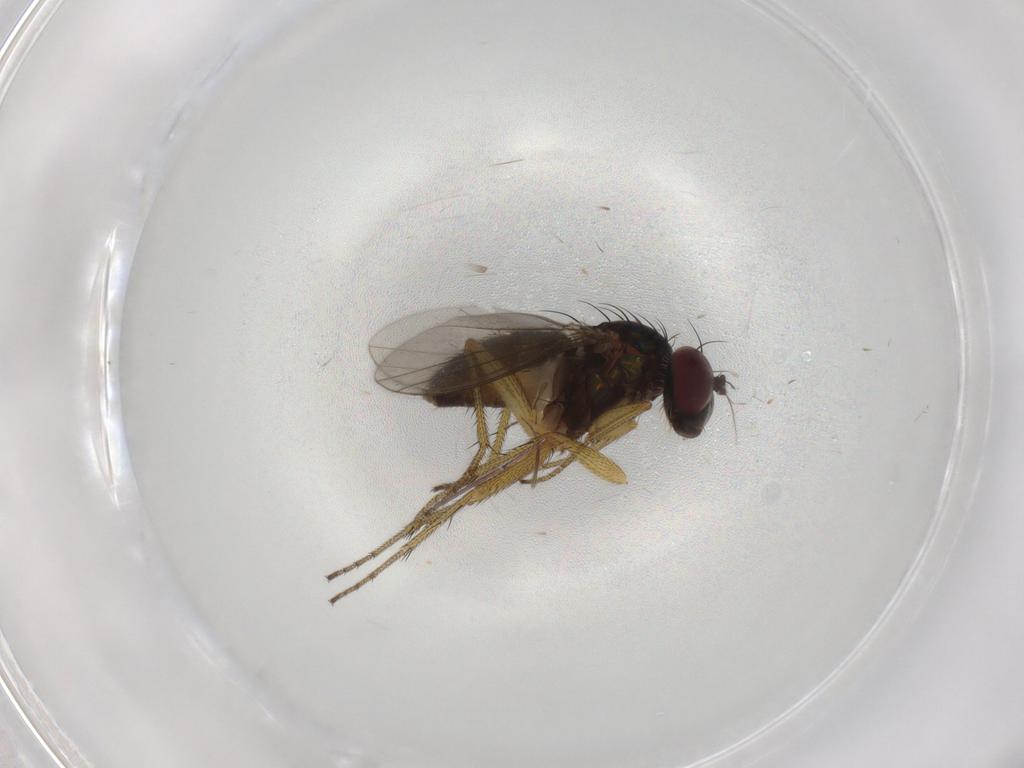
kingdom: Animalia
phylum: Arthropoda
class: Insecta
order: Diptera
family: Dolichopodidae
